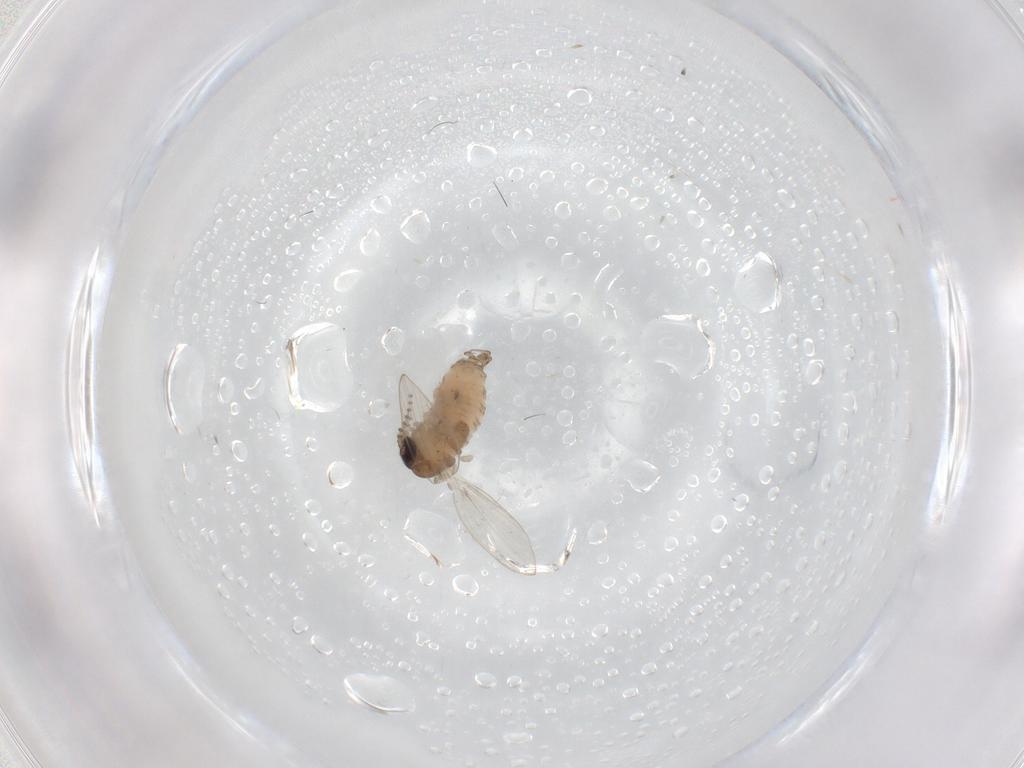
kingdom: Animalia
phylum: Arthropoda
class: Insecta
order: Diptera
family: Psychodidae
